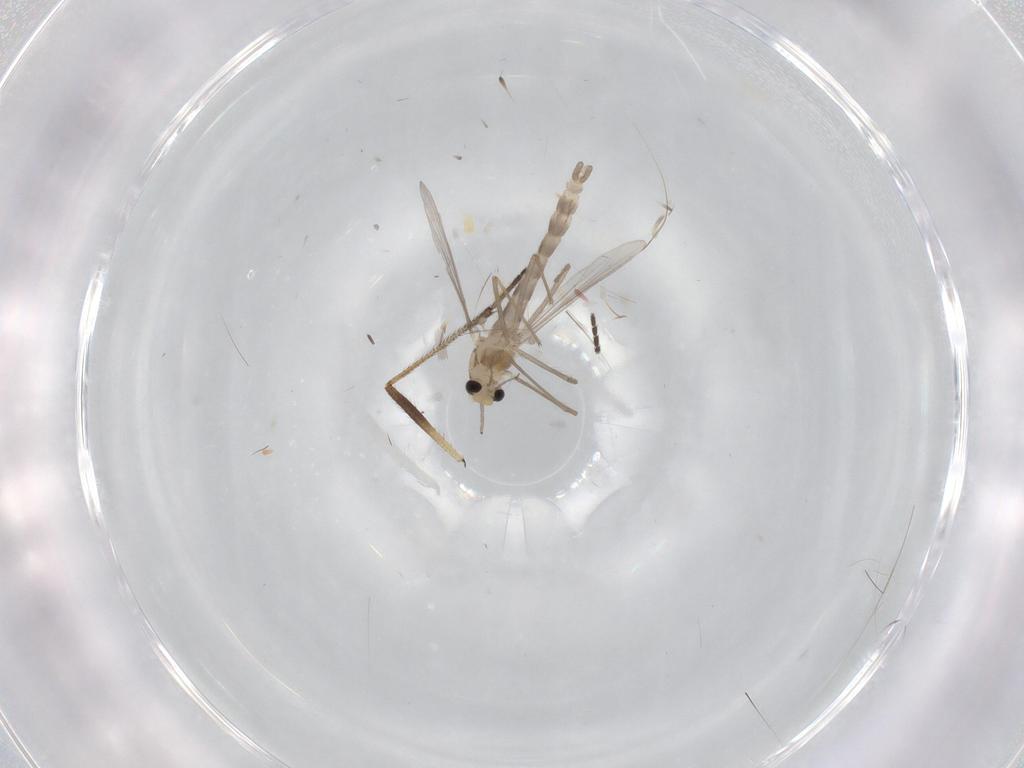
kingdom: Animalia
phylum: Arthropoda
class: Insecta
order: Diptera
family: Chironomidae
